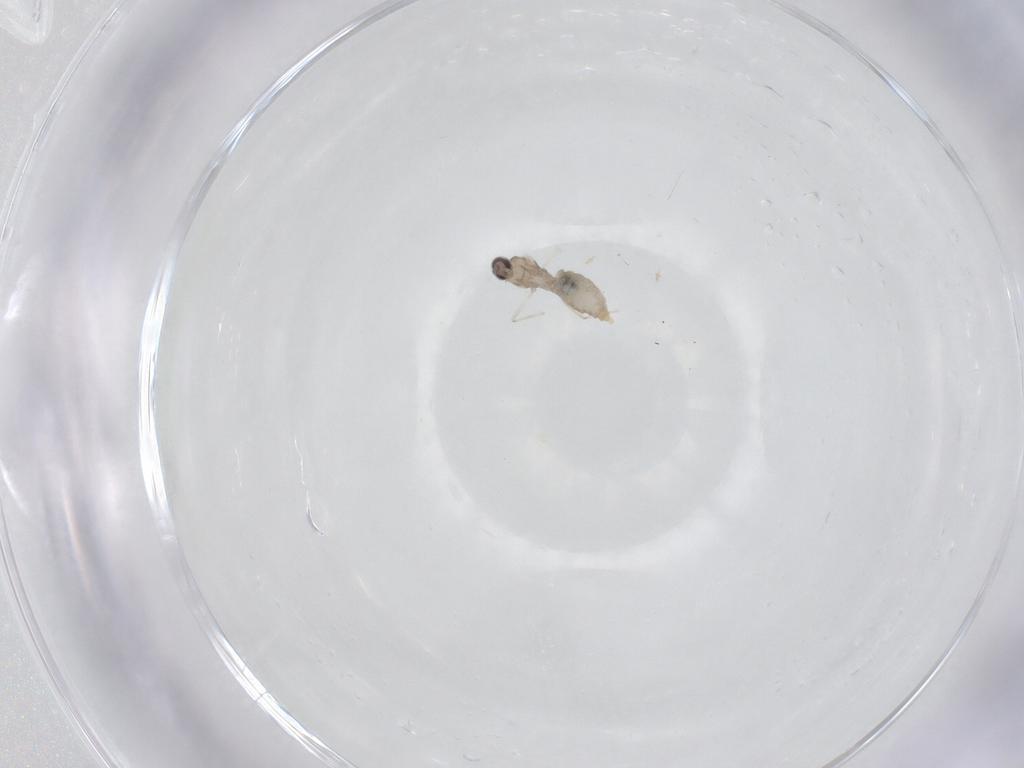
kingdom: Animalia
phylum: Arthropoda
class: Insecta
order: Diptera
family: Cecidomyiidae
